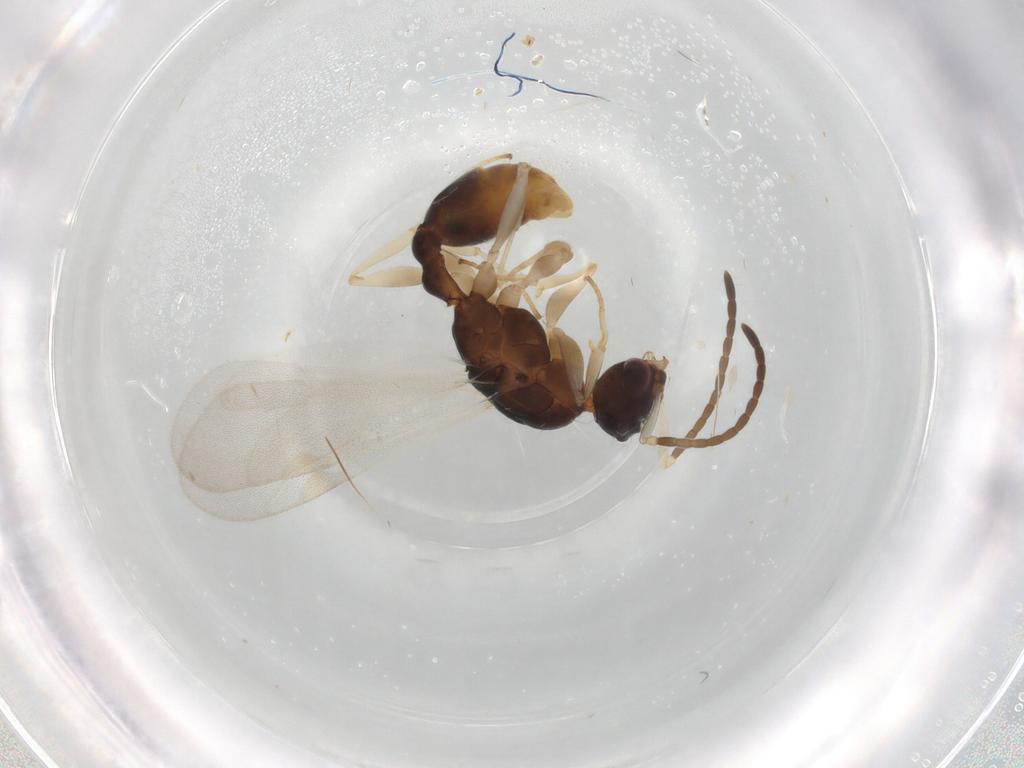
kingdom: Animalia
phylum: Arthropoda
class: Insecta
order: Hymenoptera
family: Formicidae
